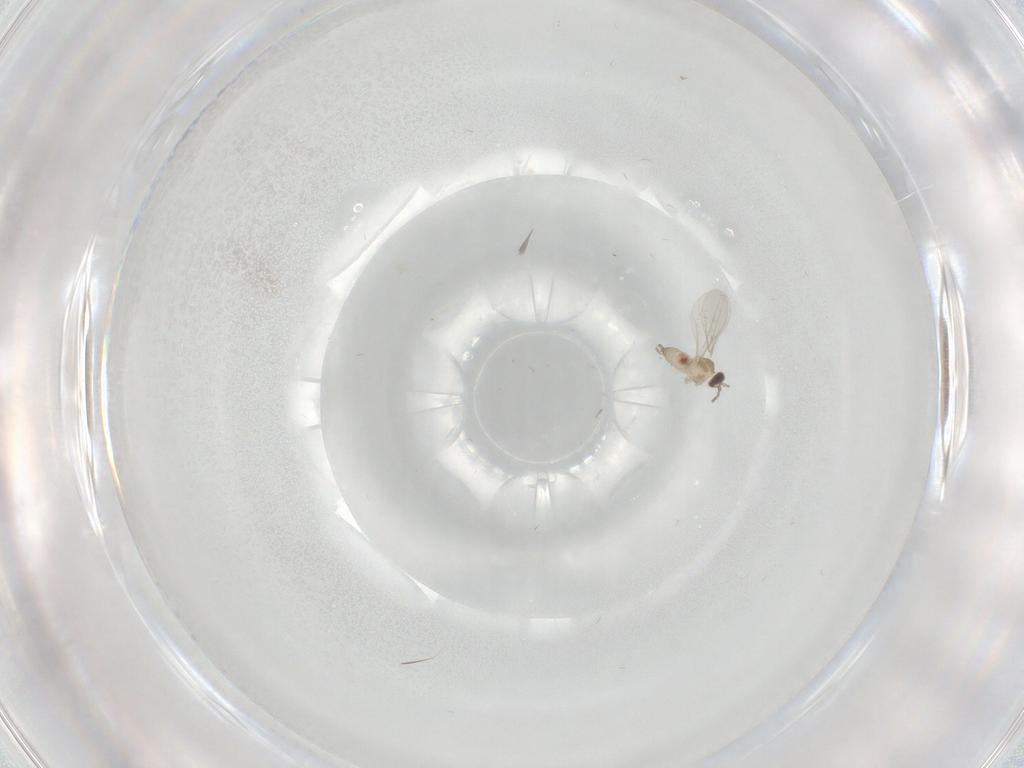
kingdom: Animalia
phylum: Arthropoda
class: Insecta
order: Diptera
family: Cecidomyiidae
